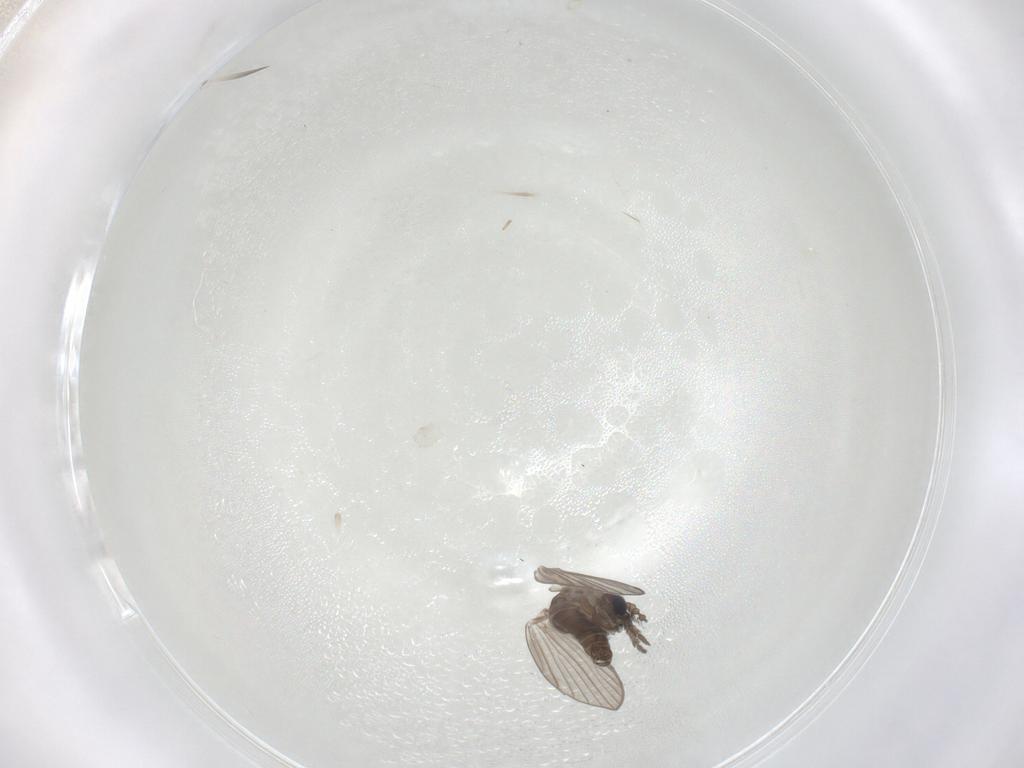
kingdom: Animalia
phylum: Arthropoda
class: Insecta
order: Diptera
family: Psychodidae
